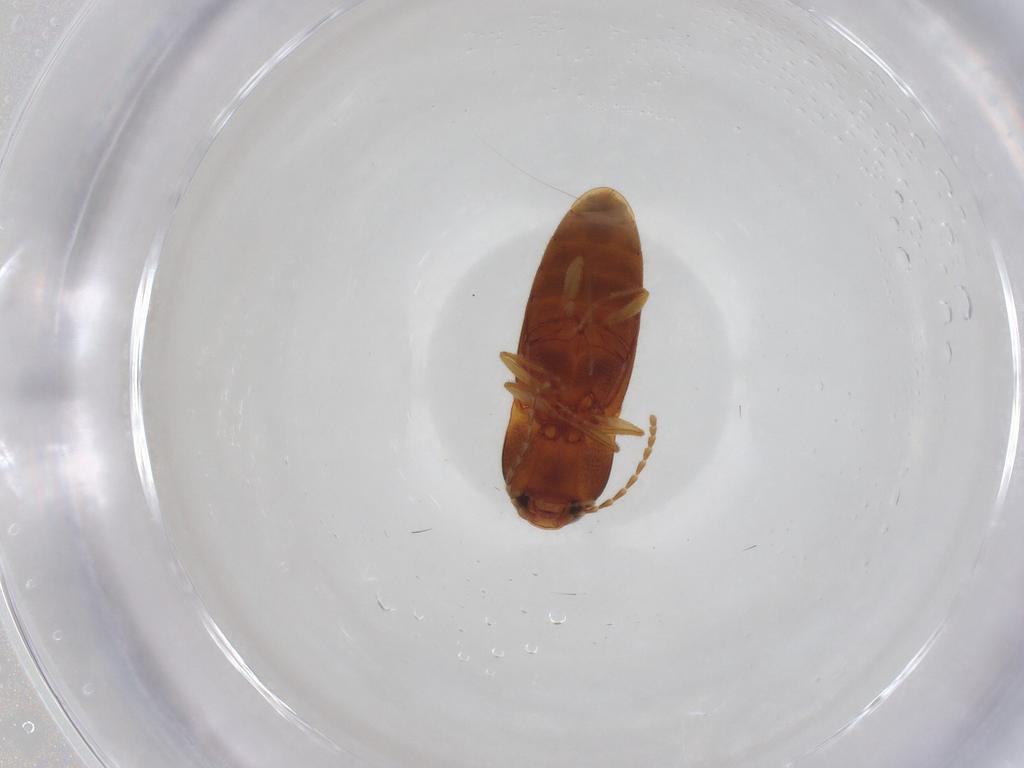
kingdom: Animalia
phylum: Arthropoda
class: Insecta
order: Coleoptera
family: Elateridae
